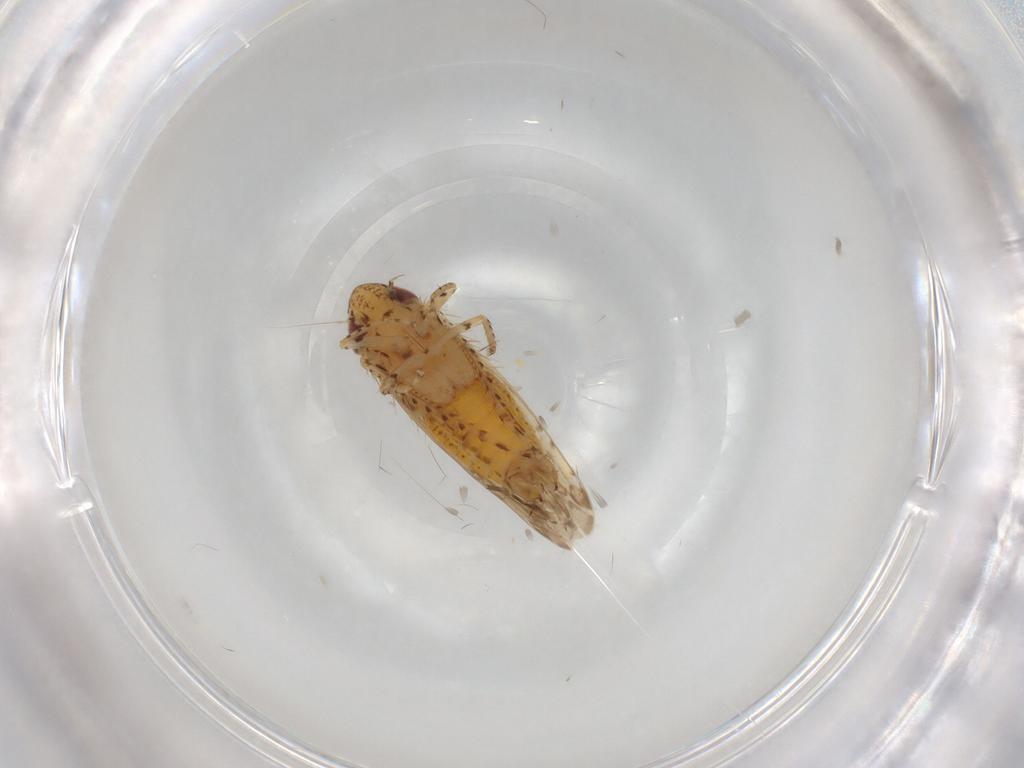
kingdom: Animalia
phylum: Arthropoda
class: Insecta
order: Hemiptera
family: Cicadellidae
